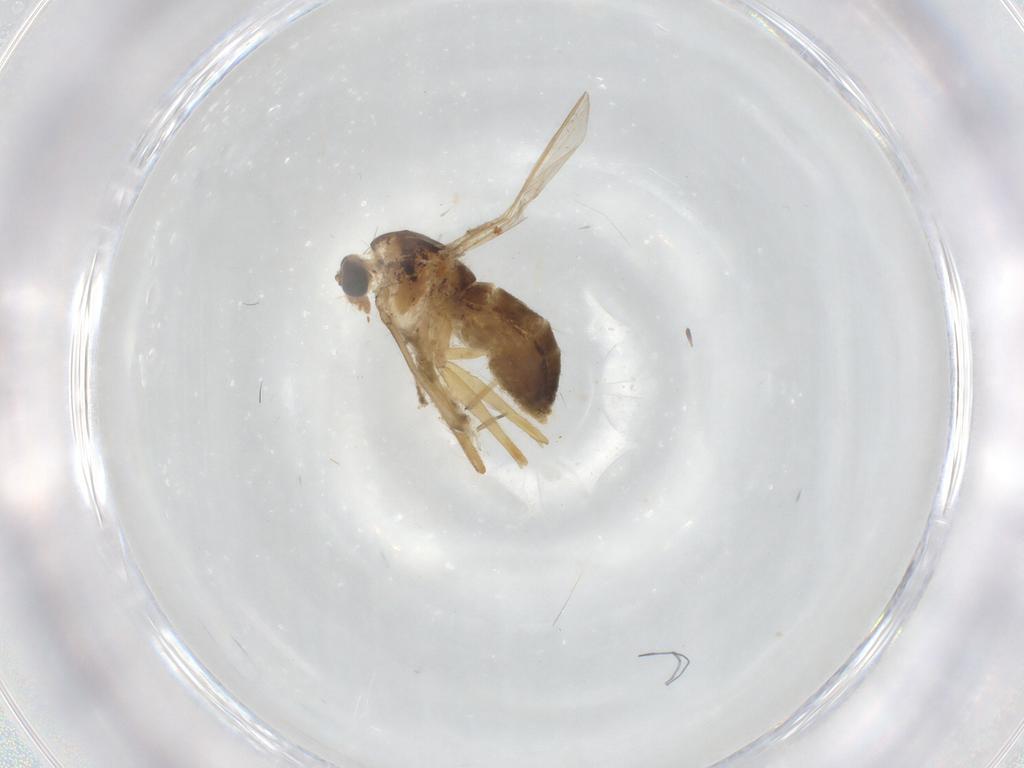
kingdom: Animalia
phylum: Arthropoda
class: Insecta
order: Diptera
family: Phoridae
